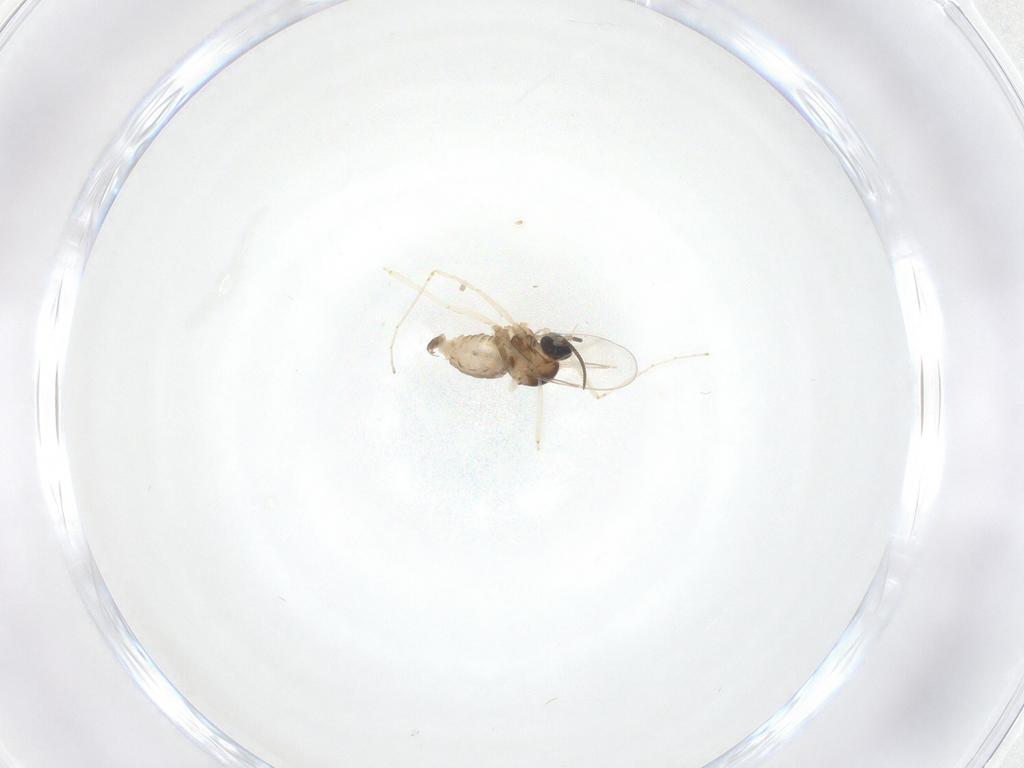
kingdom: Animalia
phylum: Arthropoda
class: Insecta
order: Diptera
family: Cecidomyiidae
